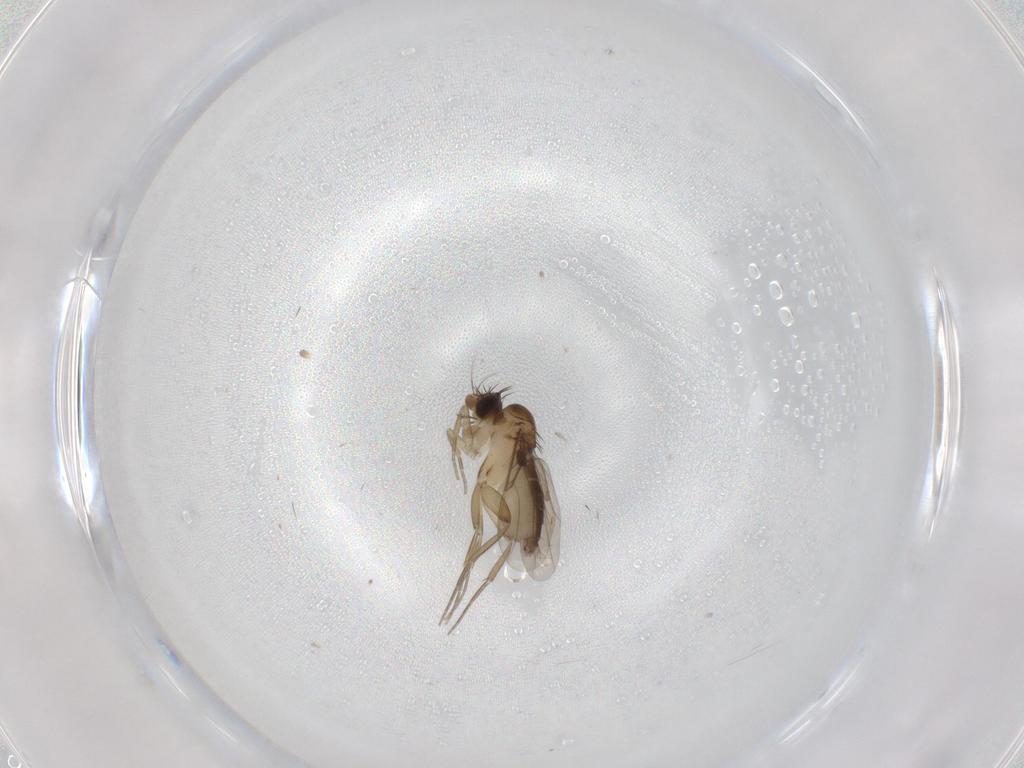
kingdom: Animalia
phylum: Arthropoda
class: Insecta
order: Diptera
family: Phoridae
